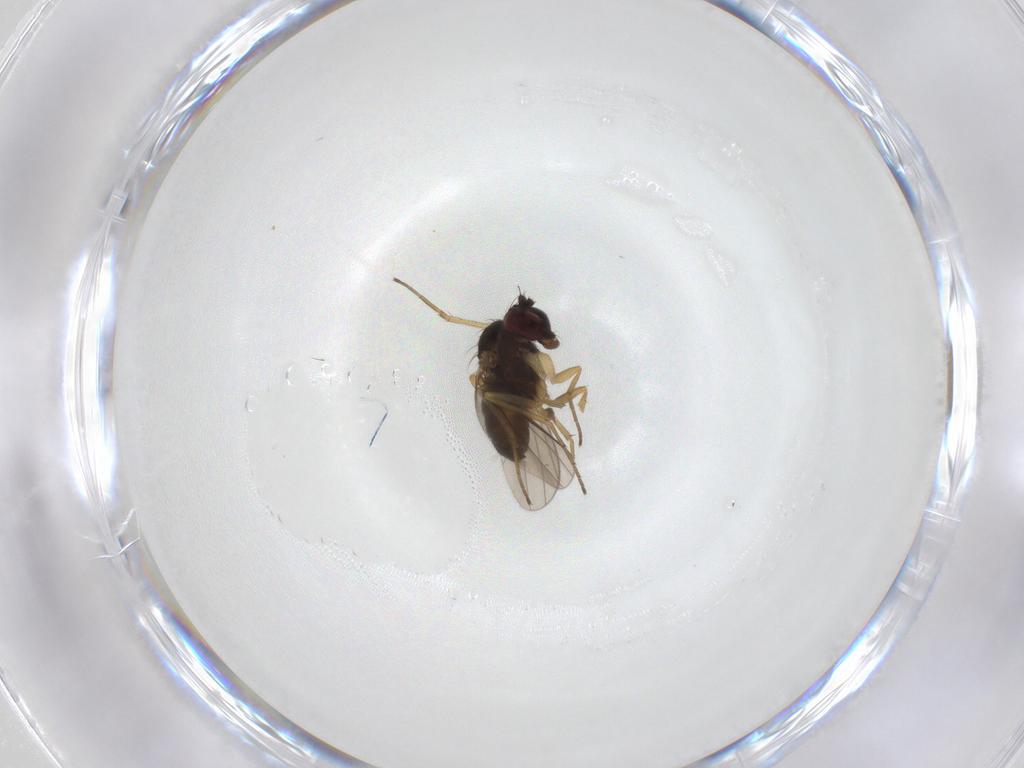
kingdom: Animalia
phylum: Arthropoda
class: Insecta
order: Diptera
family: Dolichopodidae
